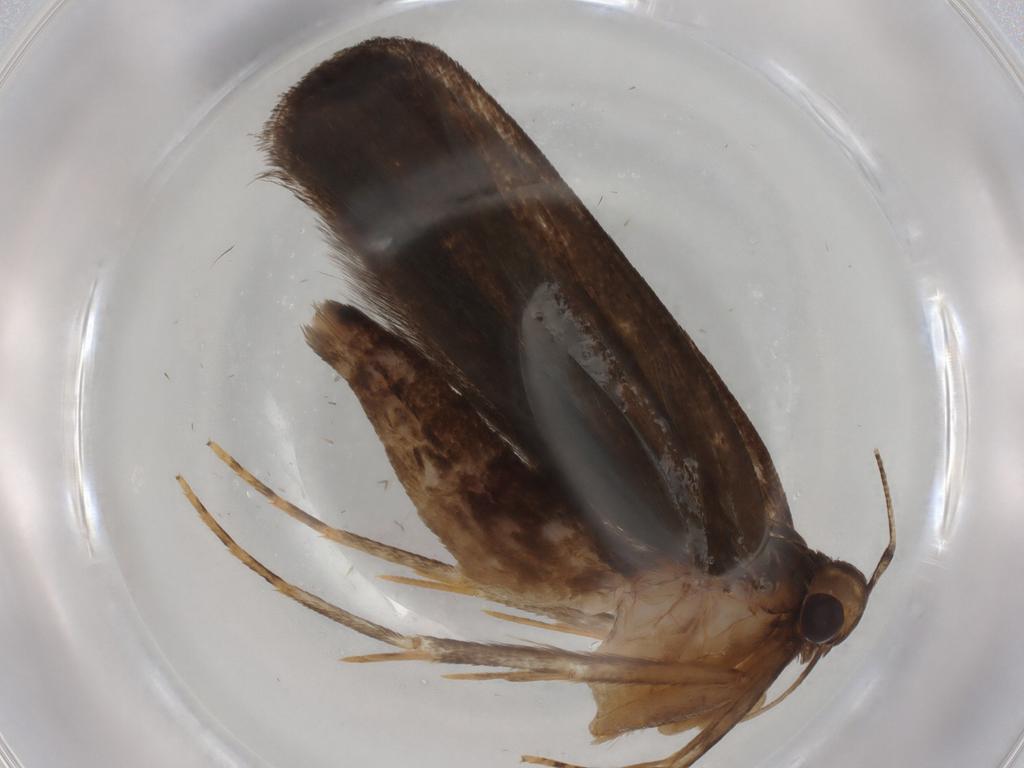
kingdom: Animalia
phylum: Arthropoda
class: Insecta
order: Lepidoptera
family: Gelechiidae
